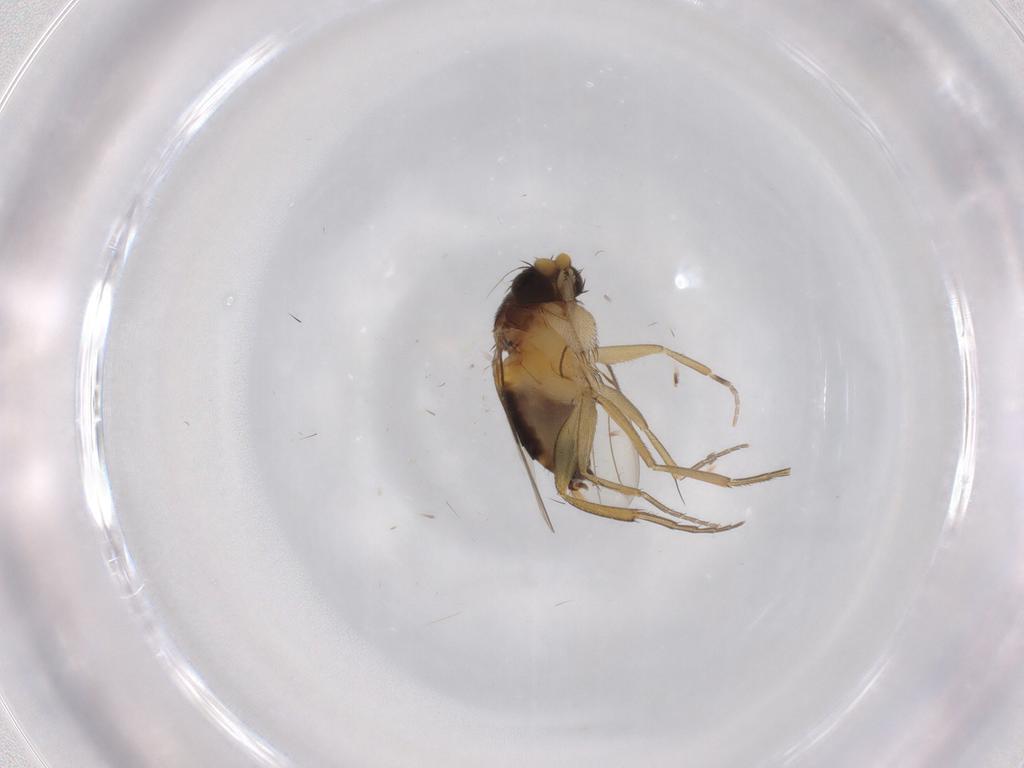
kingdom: Animalia
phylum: Arthropoda
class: Insecta
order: Diptera
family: Phoridae
